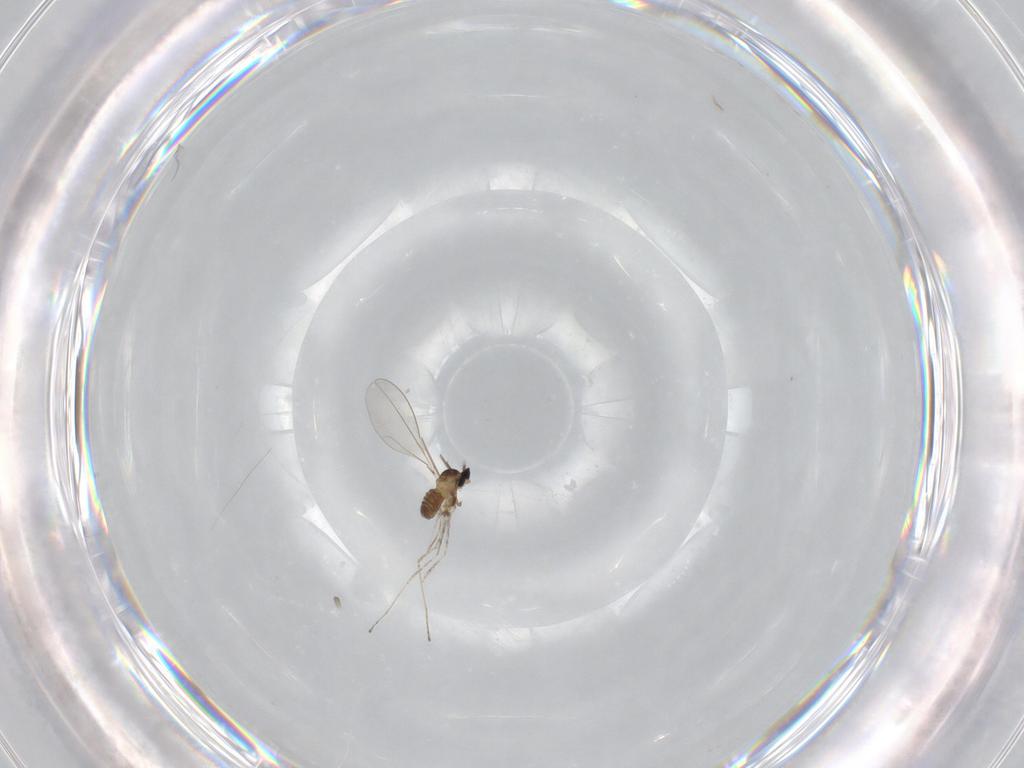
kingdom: Animalia
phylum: Arthropoda
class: Insecta
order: Diptera
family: Cecidomyiidae
